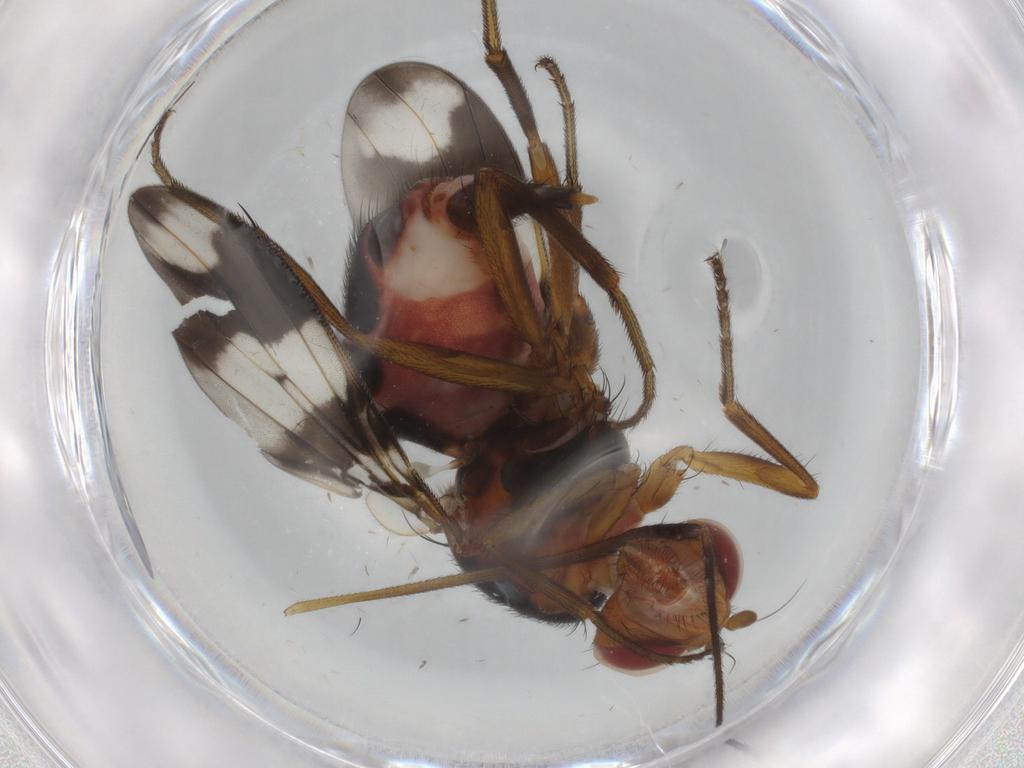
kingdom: Animalia
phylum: Arthropoda
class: Insecta
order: Diptera
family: Richardiidae
